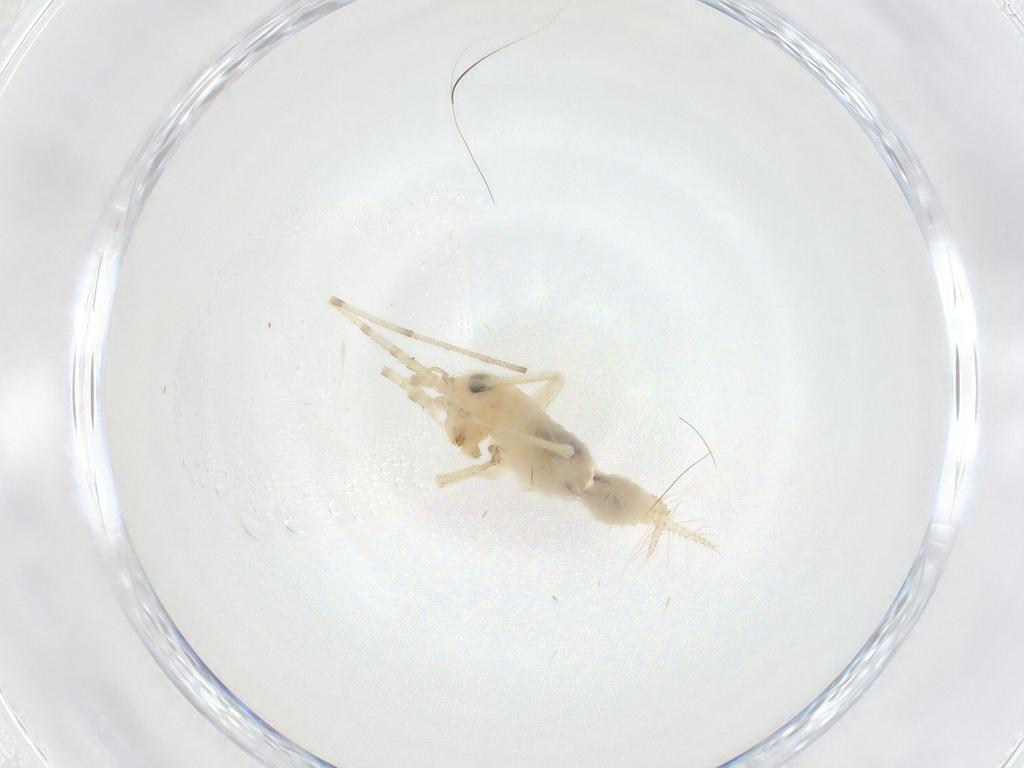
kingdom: Animalia
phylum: Arthropoda
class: Insecta
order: Orthoptera
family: Trigonidiidae
